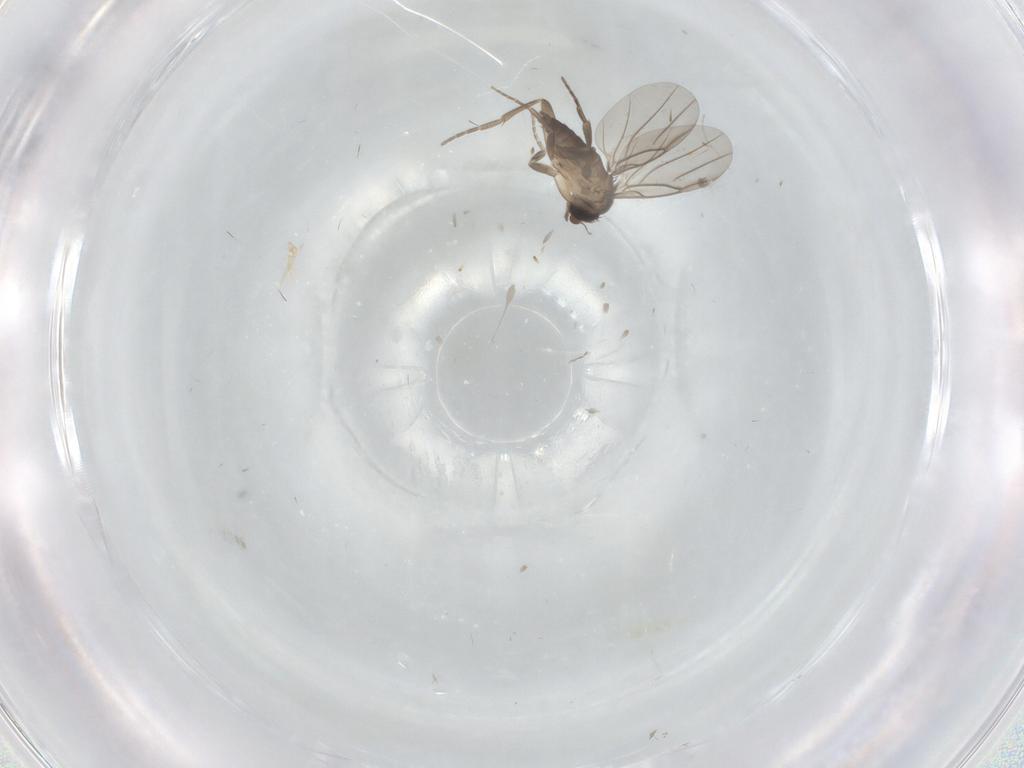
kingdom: Animalia
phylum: Arthropoda
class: Insecta
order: Diptera
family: Phoridae
